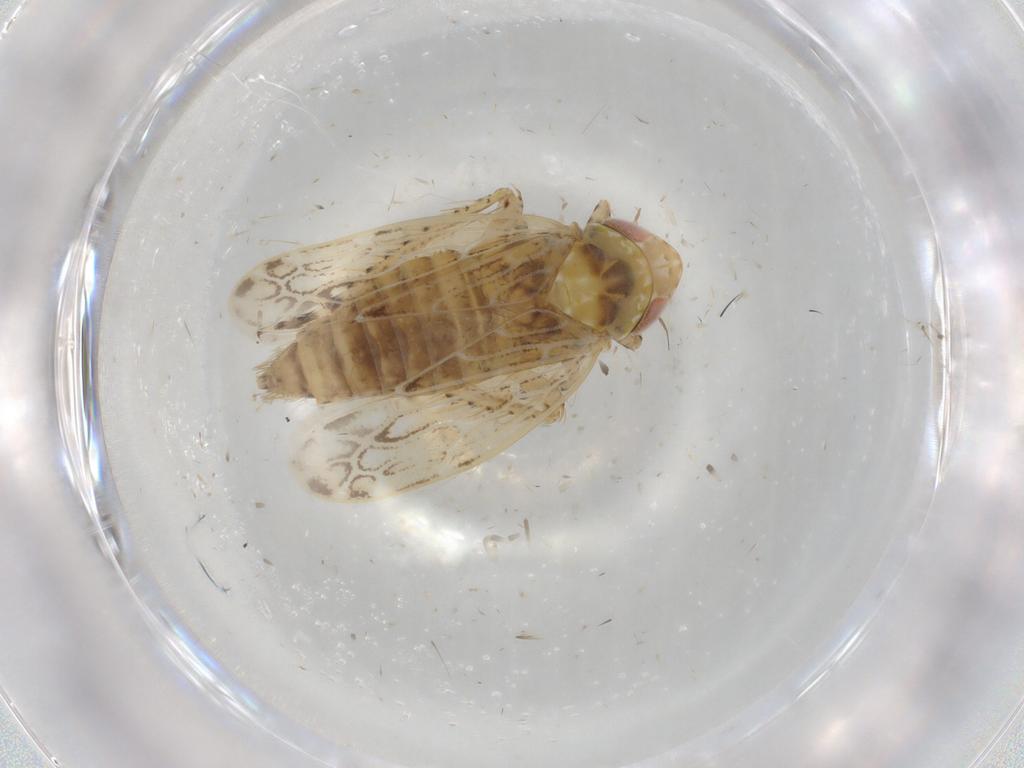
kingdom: Animalia
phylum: Arthropoda
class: Insecta
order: Hemiptera
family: Cicadellidae
